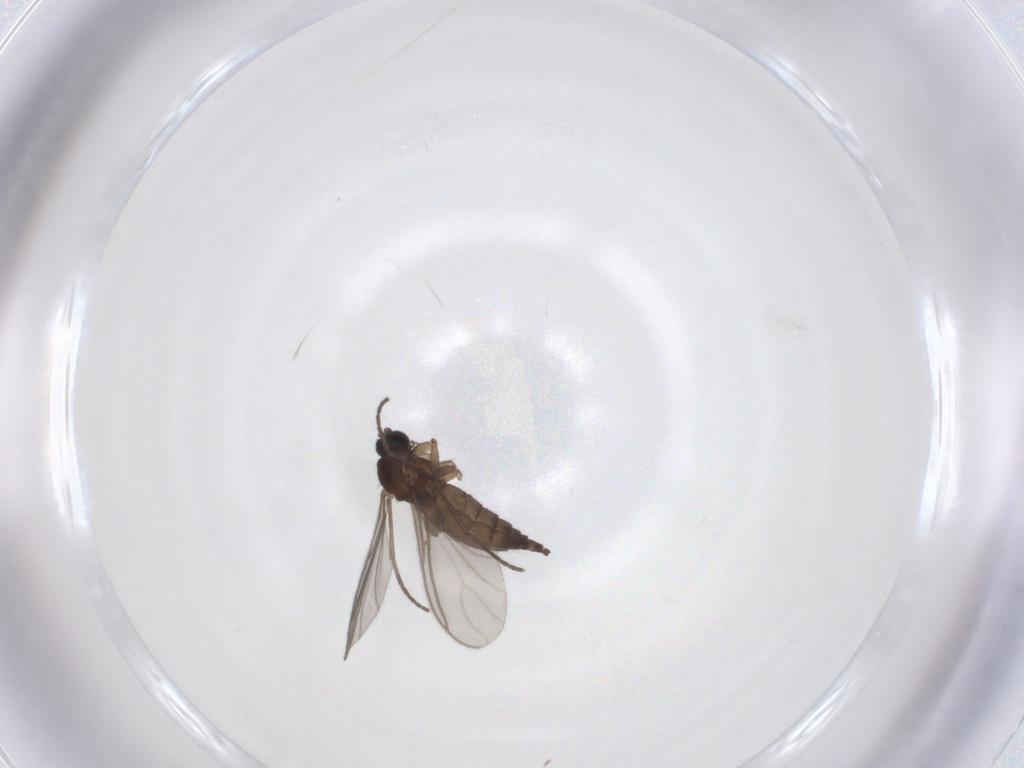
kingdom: Animalia
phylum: Arthropoda
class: Insecta
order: Diptera
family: Sciaridae
